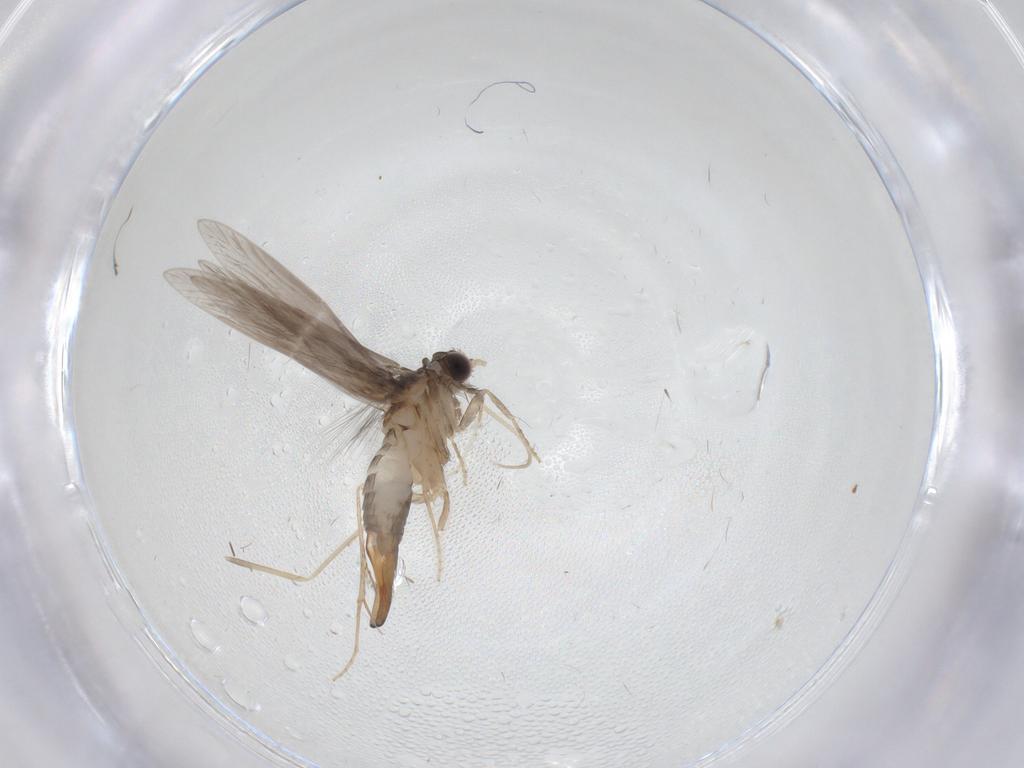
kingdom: Animalia
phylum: Arthropoda
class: Insecta
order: Trichoptera
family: Hydroptilidae
